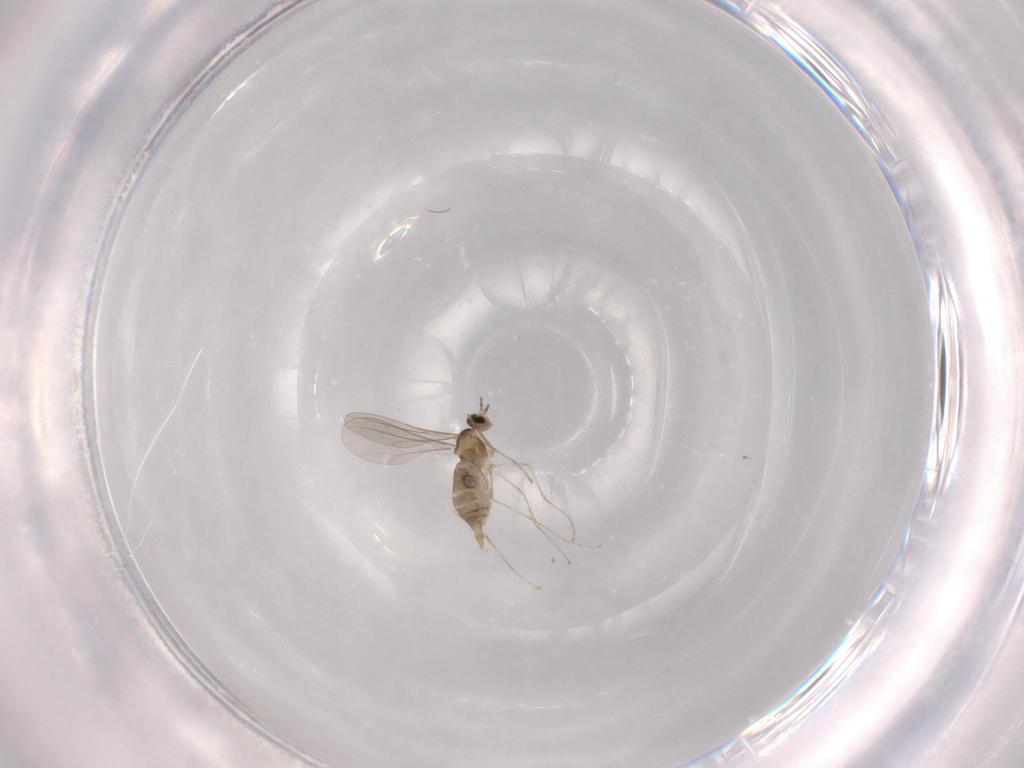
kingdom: Animalia
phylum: Arthropoda
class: Insecta
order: Diptera
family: Chironomidae
